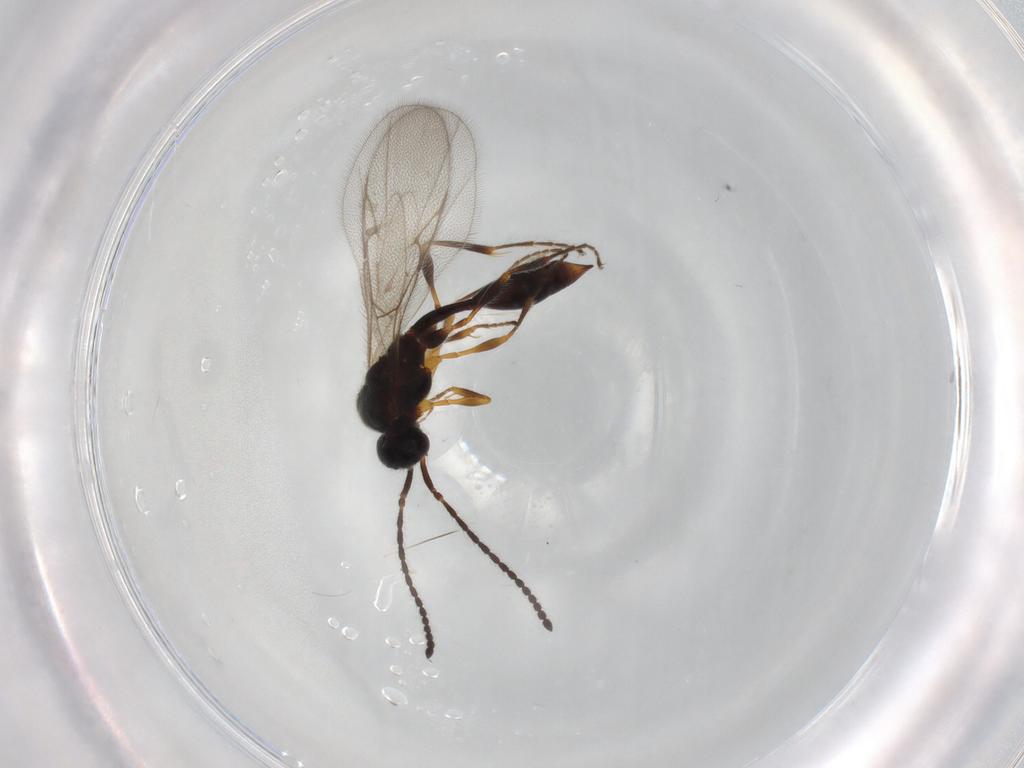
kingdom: Animalia
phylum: Arthropoda
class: Insecta
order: Hymenoptera
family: Diapriidae
